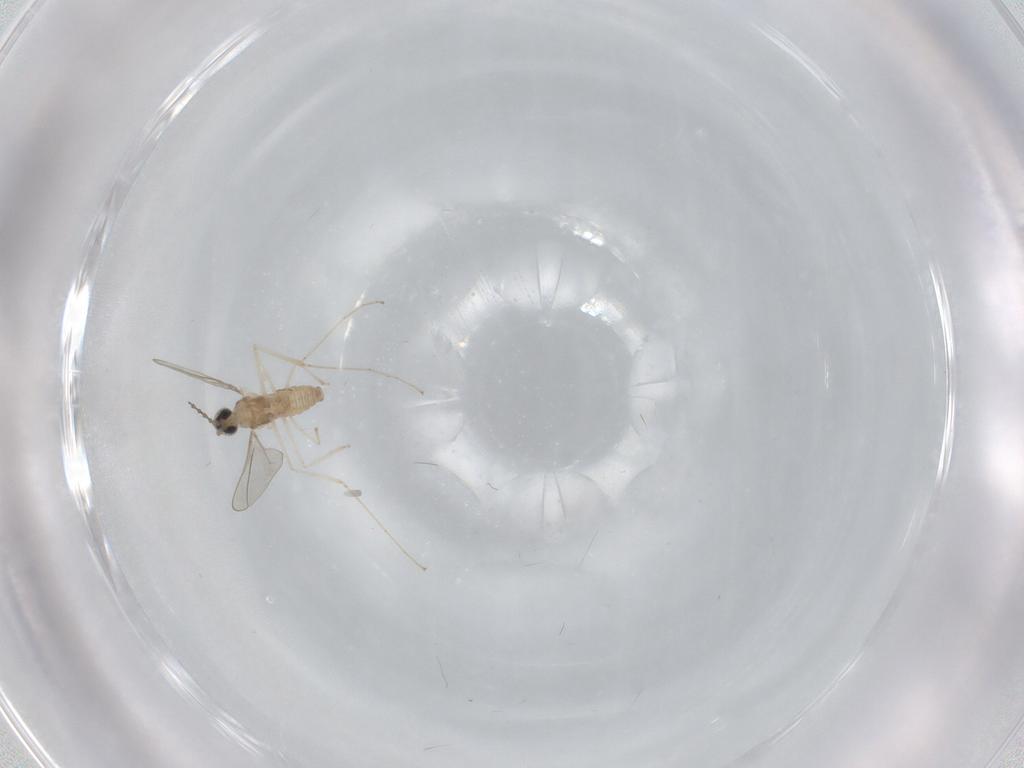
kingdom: Animalia
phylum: Arthropoda
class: Insecta
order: Diptera
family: Cecidomyiidae
